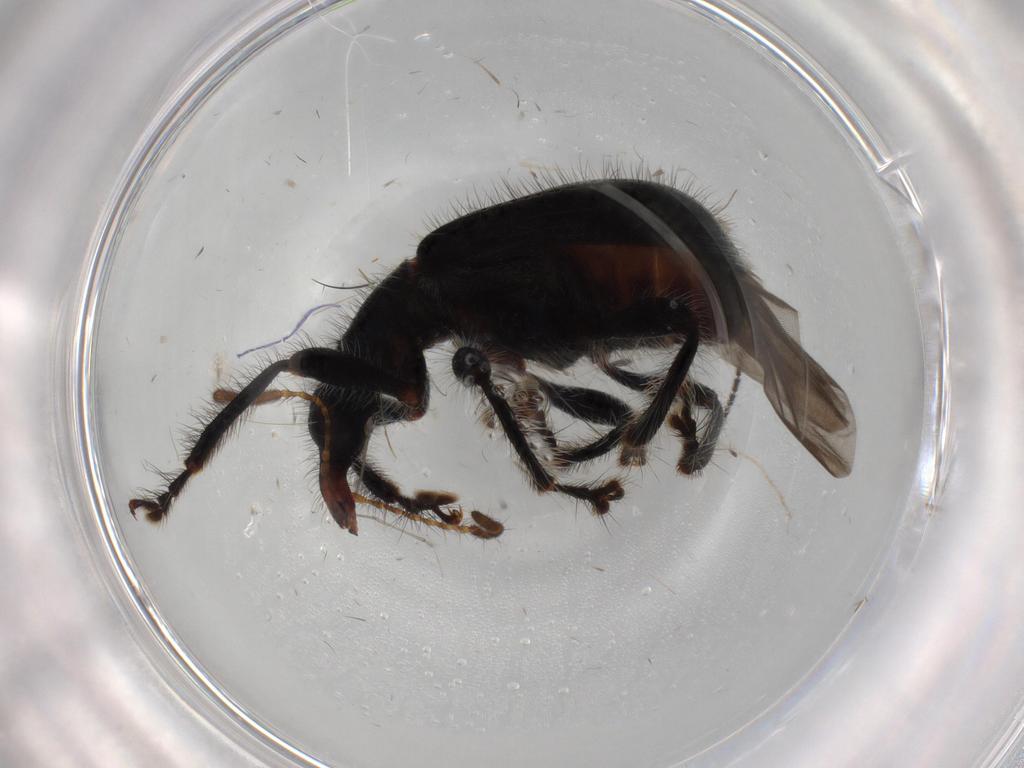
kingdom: Animalia
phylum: Arthropoda
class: Insecta
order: Coleoptera
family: Attelabidae
